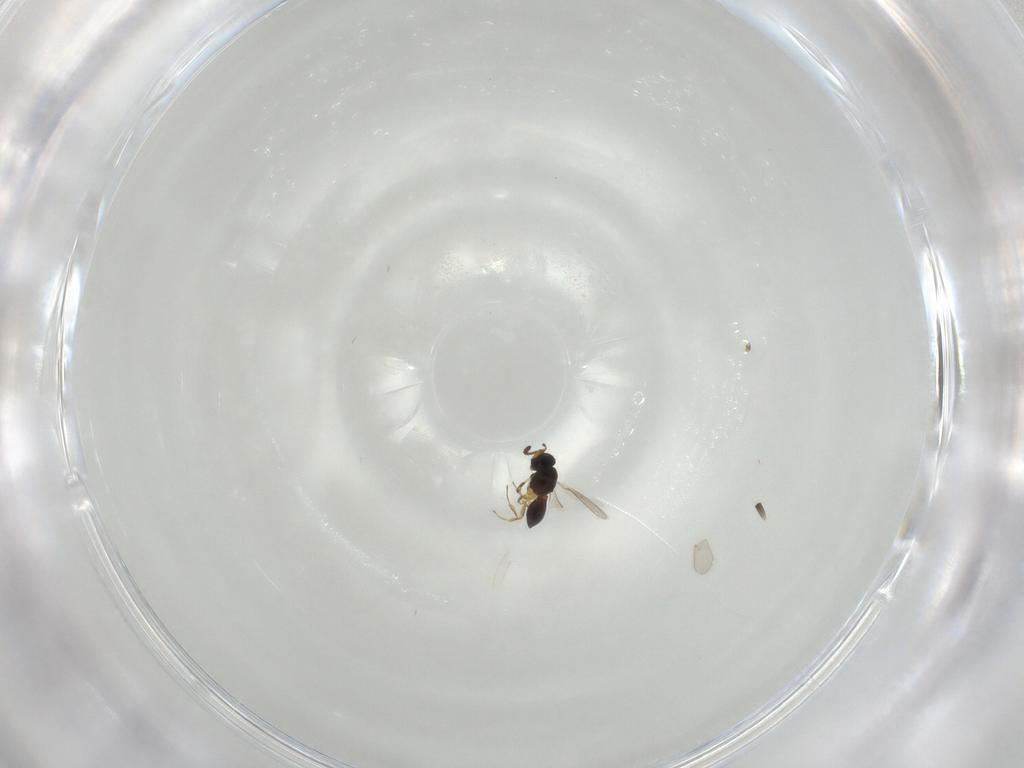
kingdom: Animalia
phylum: Arthropoda
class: Insecta
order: Hymenoptera
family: Scelionidae
